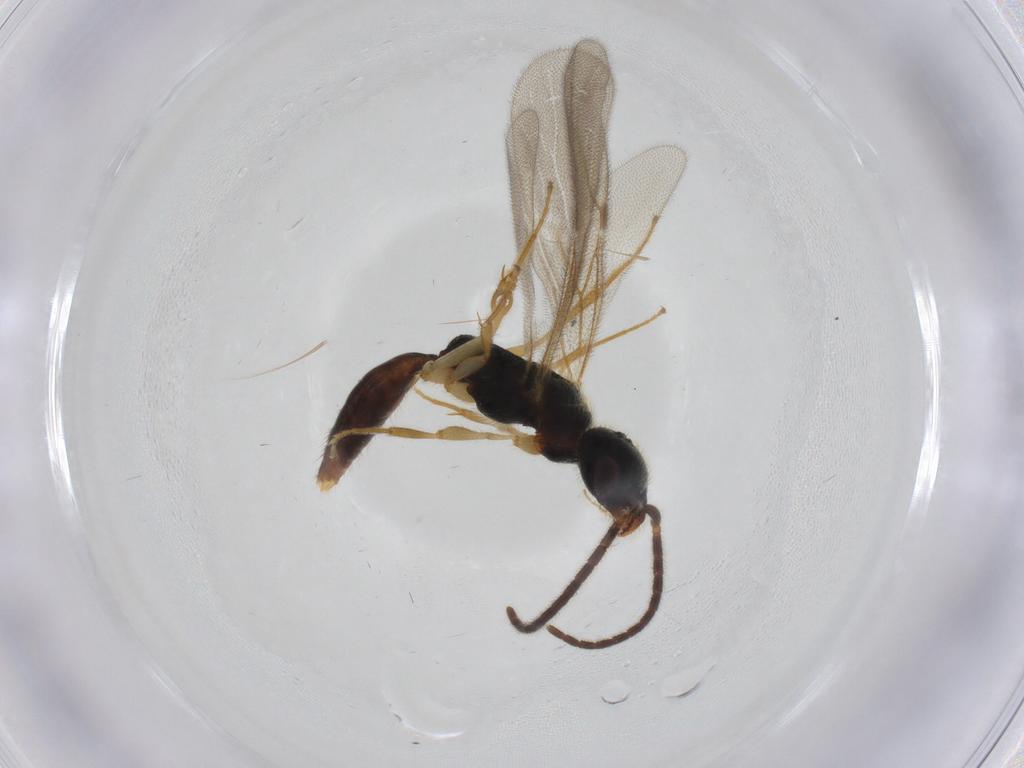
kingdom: Animalia
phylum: Arthropoda
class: Insecta
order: Hymenoptera
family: Bethylidae
